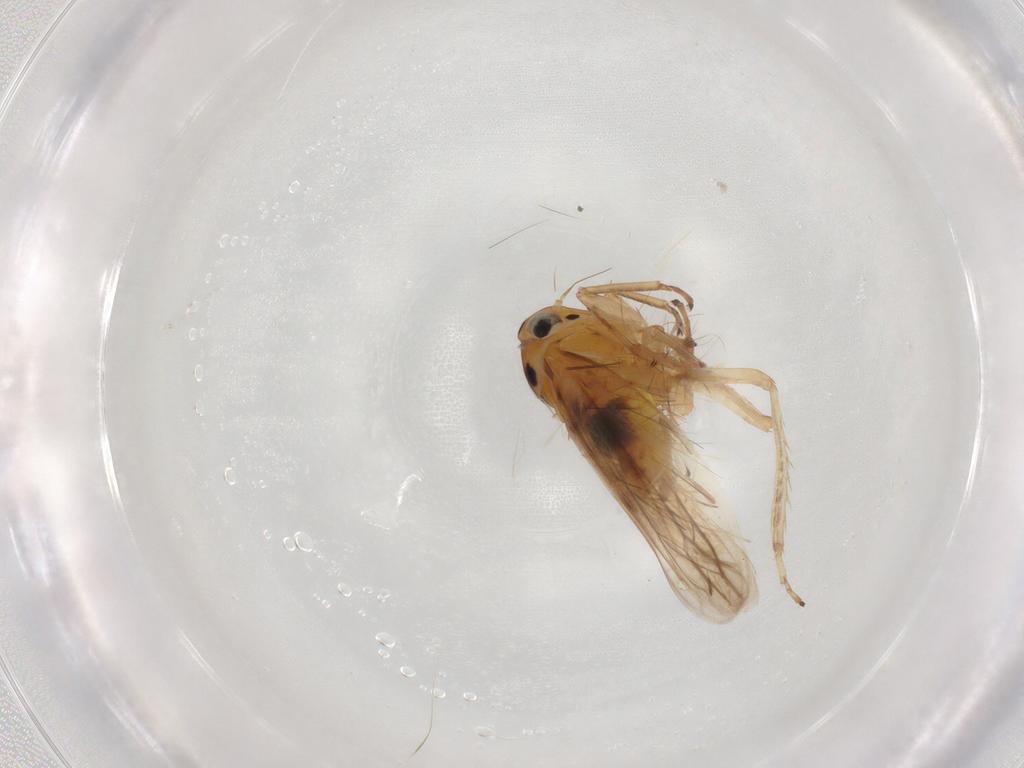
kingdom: Animalia
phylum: Arthropoda
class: Insecta
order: Hemiptera
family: Cicadellidae
